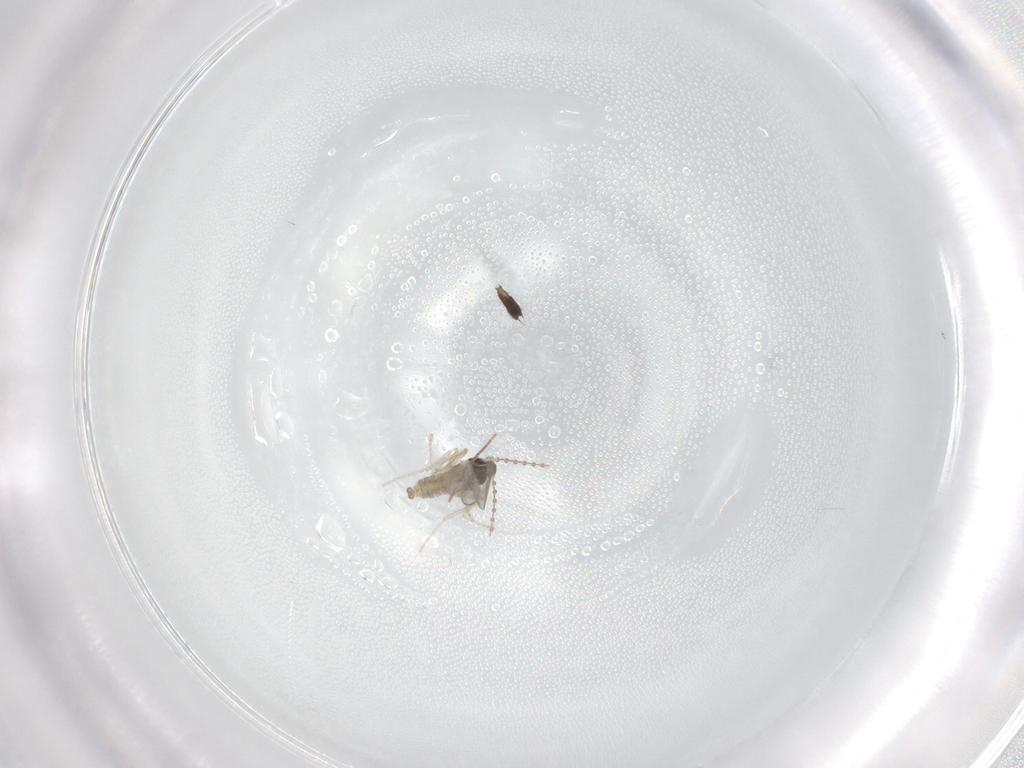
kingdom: Animalia
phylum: Arthropoda
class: Insecta
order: Diptera
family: Cecidomyiidae
